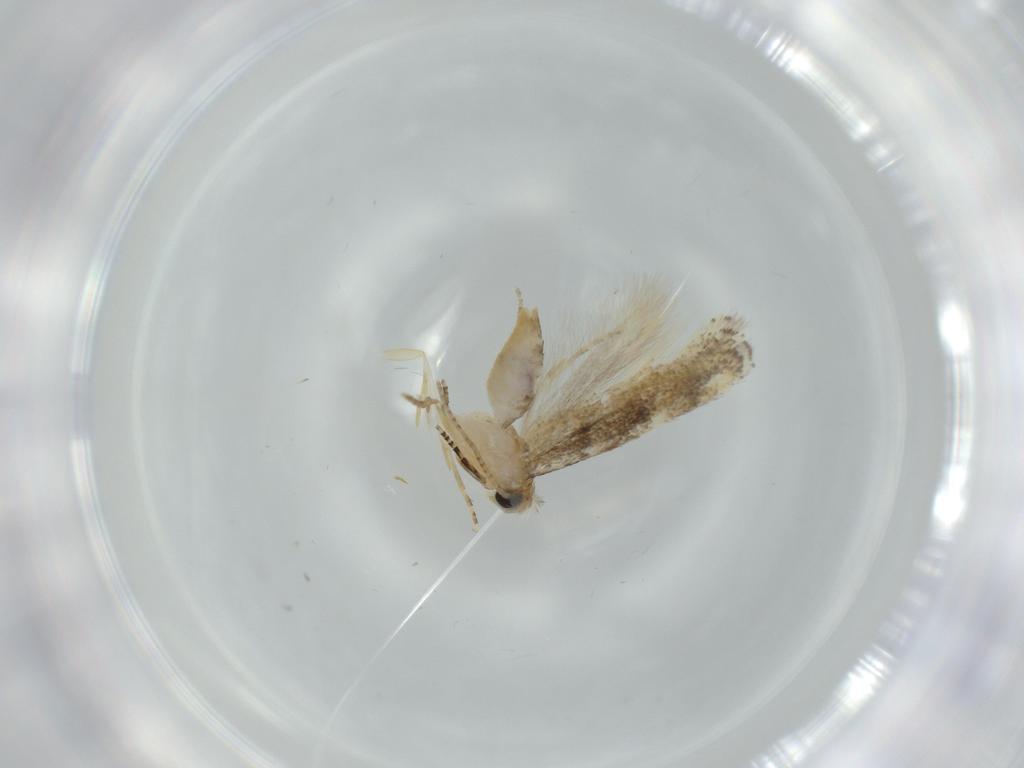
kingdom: Animalia
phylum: Arthropoda
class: Insecta
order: Lepidoptera
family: Bucculatricidae
